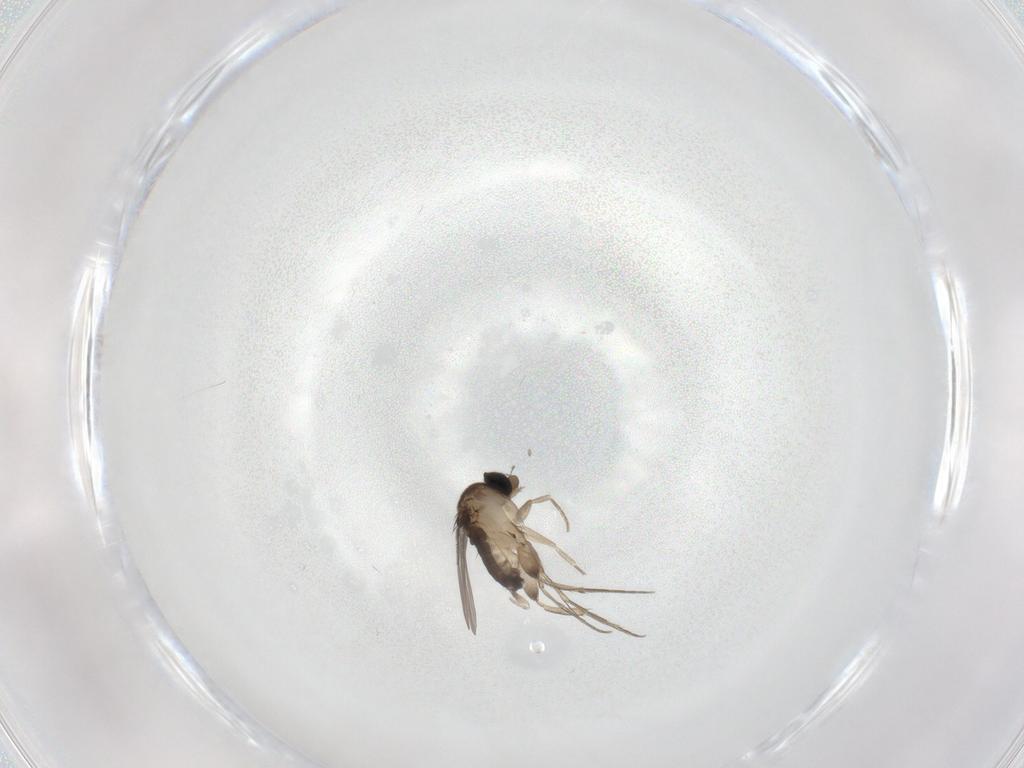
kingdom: Animalia
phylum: Arthropoda
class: Insecta
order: Diptera
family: Phoridae
